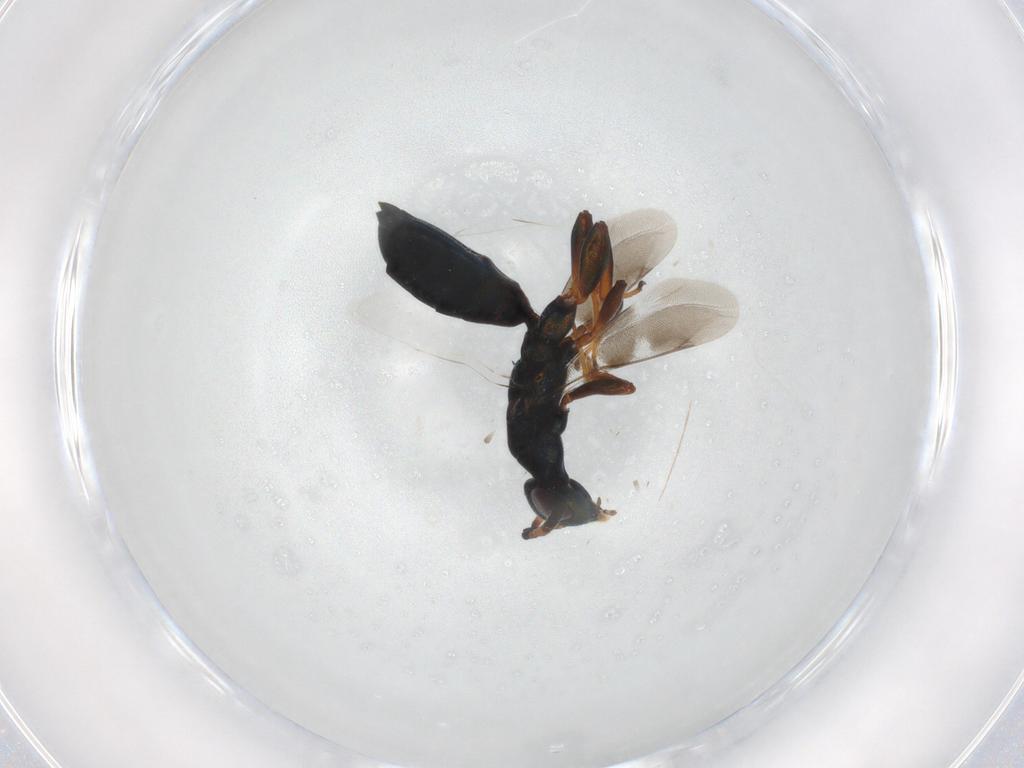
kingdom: Animalia
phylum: Arthropoda
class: Insecta
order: Hymenoptera
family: Cleonyminae
